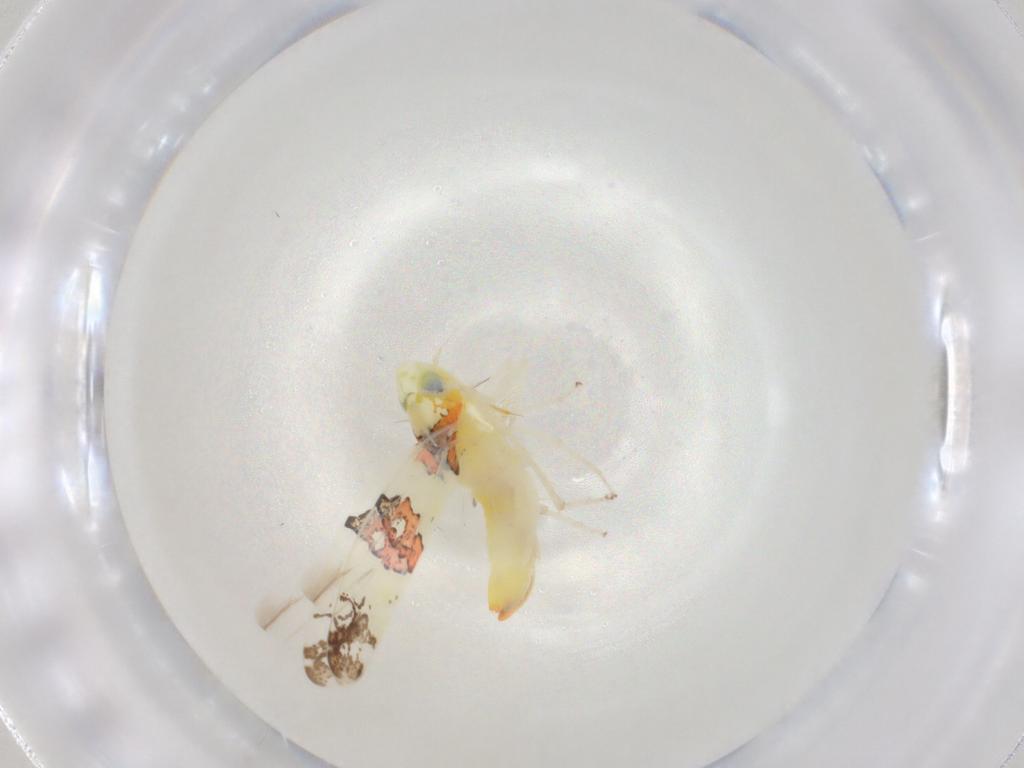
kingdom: Animalia
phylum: Arthropoda
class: Insecta
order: Hemiptera
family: Cicadellidae
